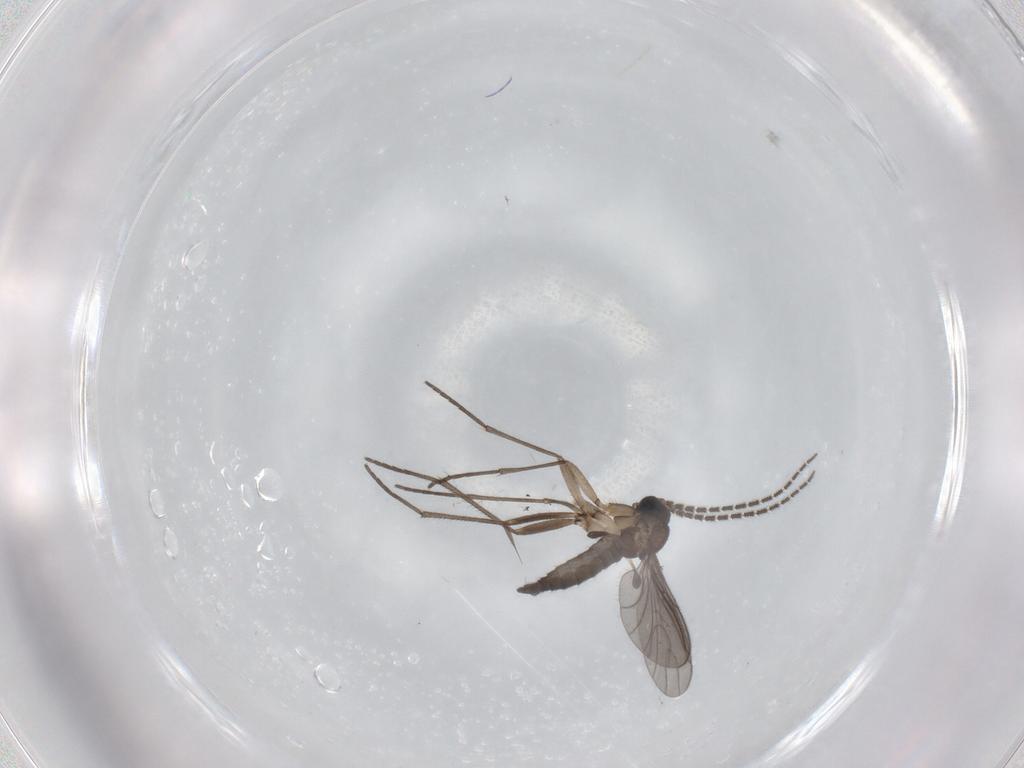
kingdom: Animalia
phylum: Arthropoda
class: Insecta
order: Diptera
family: Sciaridae
